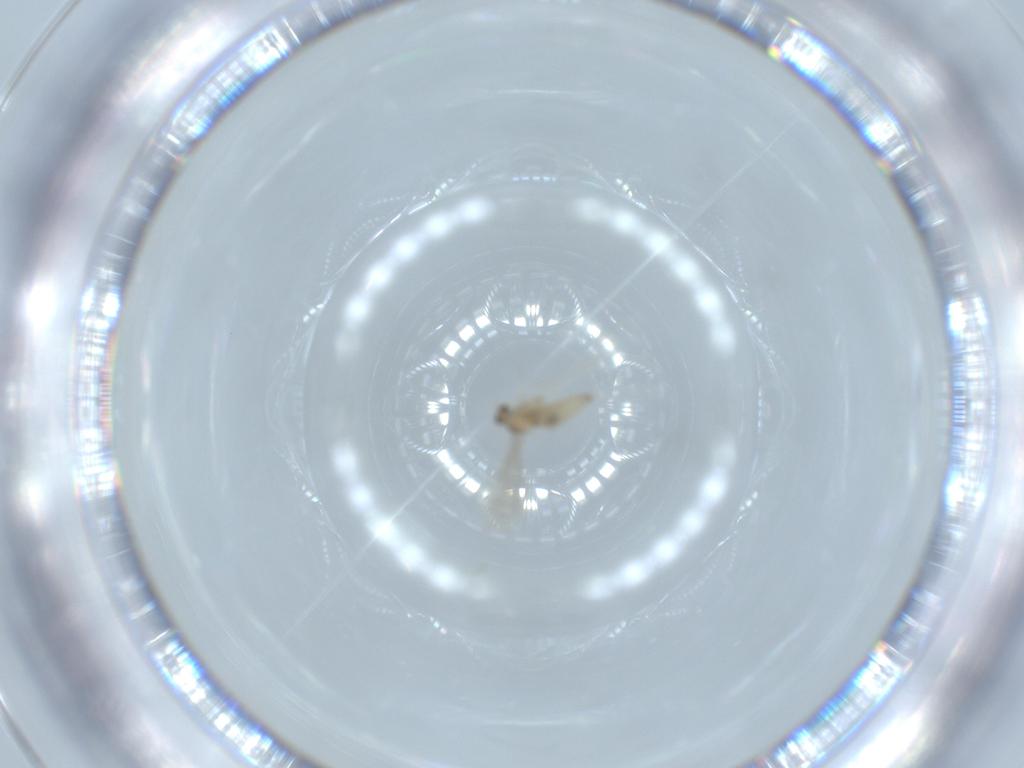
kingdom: Animalia
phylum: Arthropoda
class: Insecta
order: Diptera
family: Cecidomyiidae
